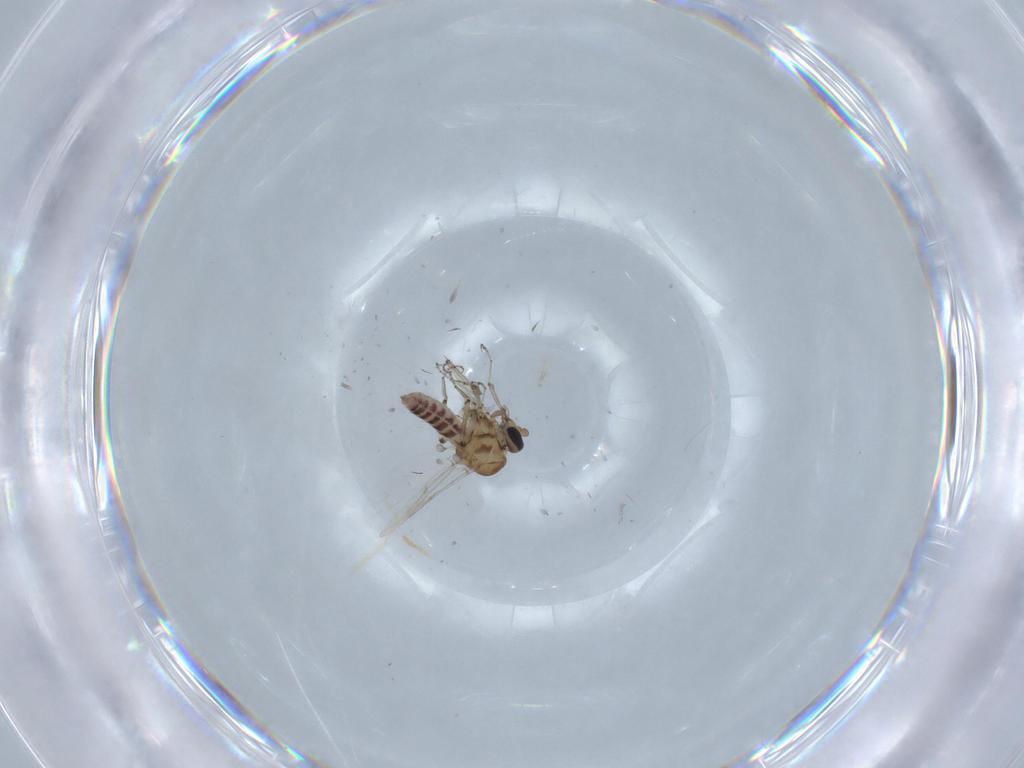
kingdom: Animalia
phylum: Arthropoda
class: Insecta
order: Diptera
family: Ceratopogonidae
